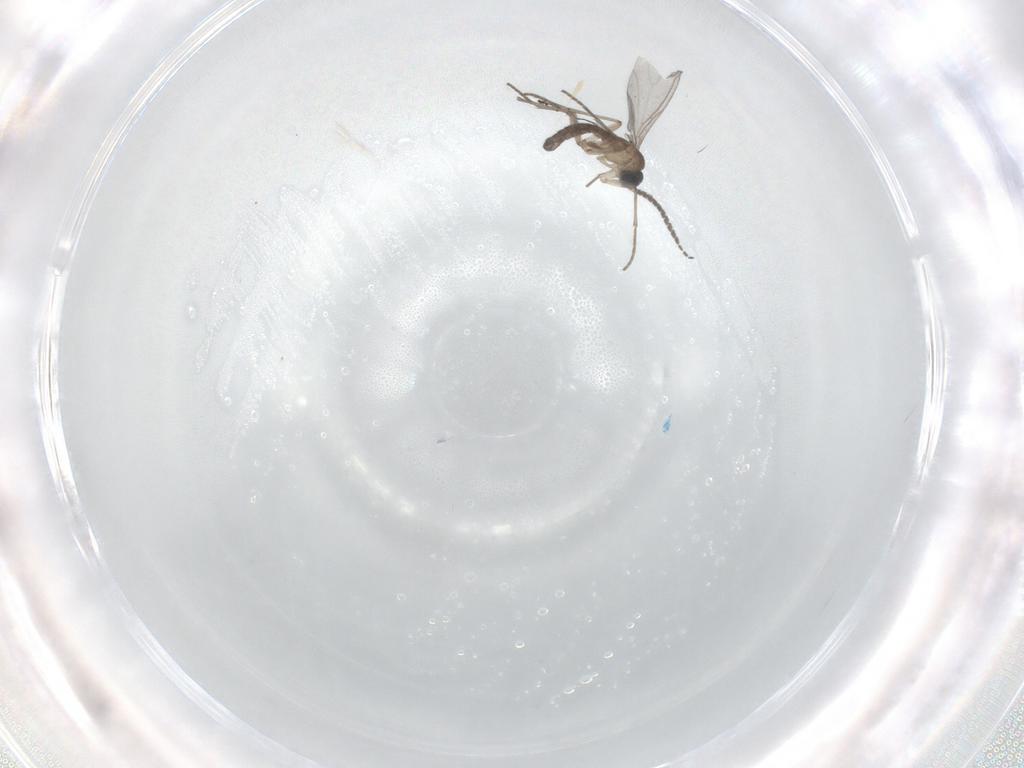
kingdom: Animalia
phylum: Arthropoda
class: Insecta
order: Diptera
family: Sciaridae
